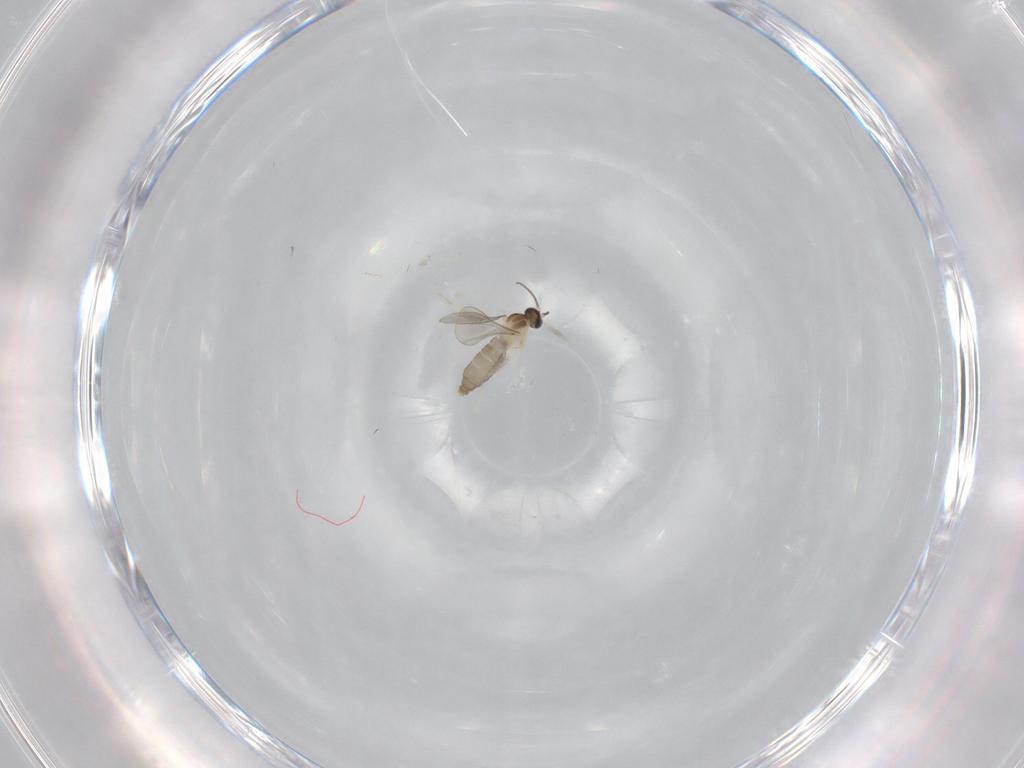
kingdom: Animalia
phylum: Arthropoda
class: Insecta
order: Diptera
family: Cecidomyiidae
